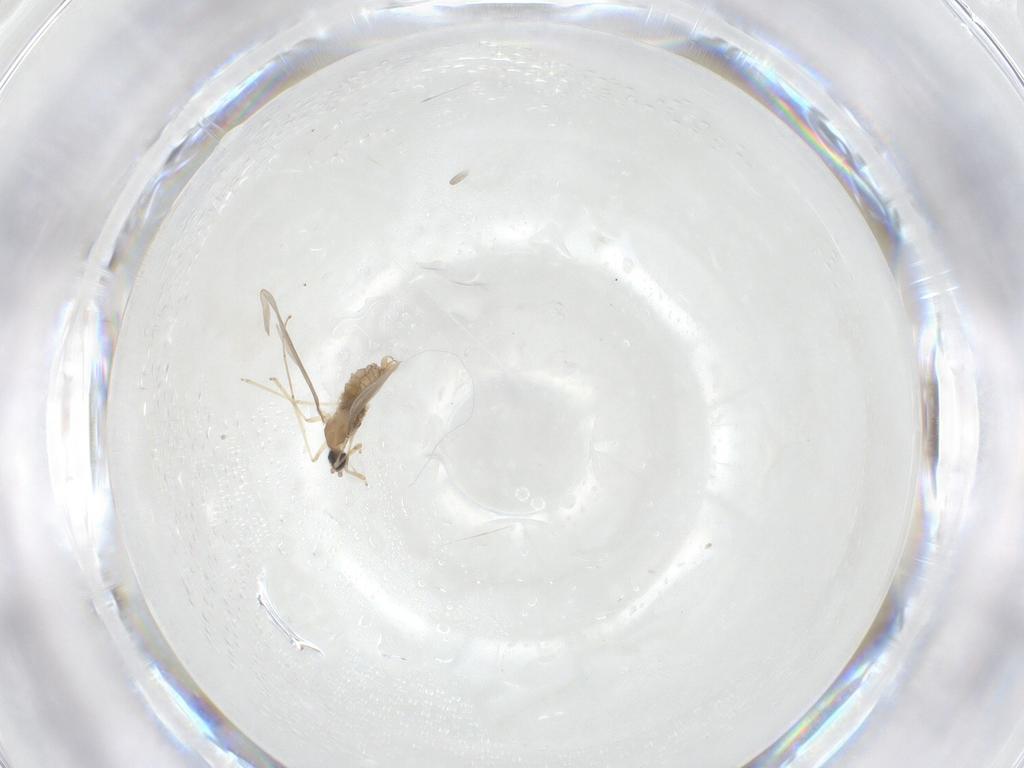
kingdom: Animalia
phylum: Arthropoda
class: Insecta
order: Diptera
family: Cecidomyiidae
